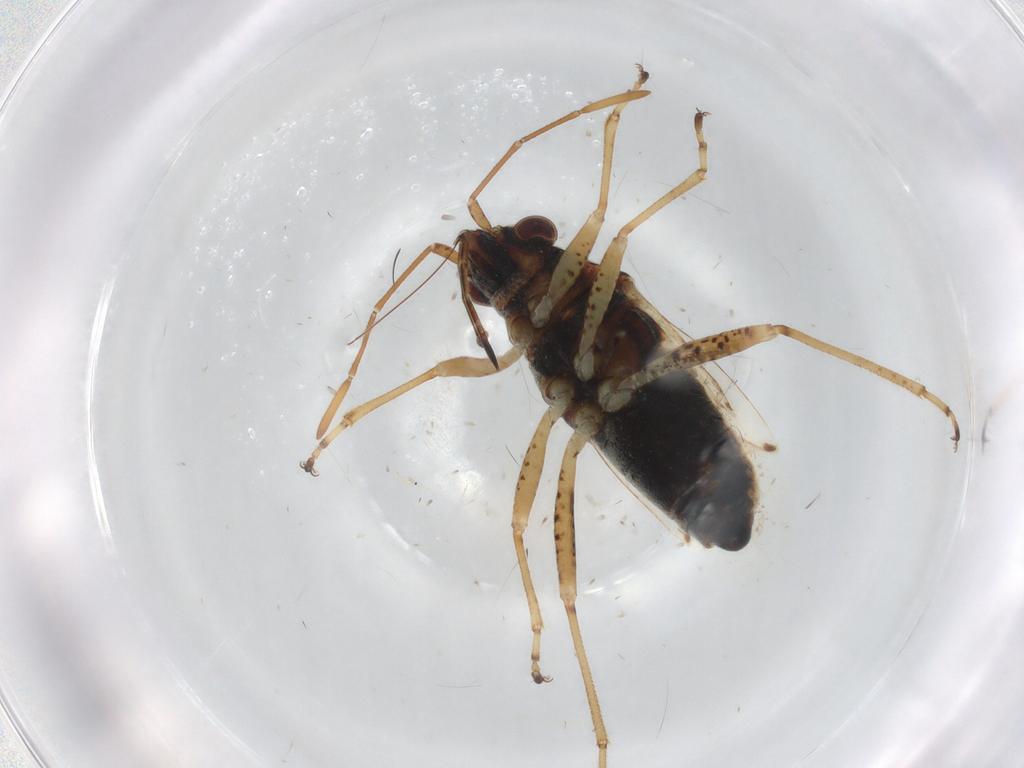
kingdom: Animalia
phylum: Arthropoda
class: Insecta
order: Hemiptera
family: Lygaeidae
